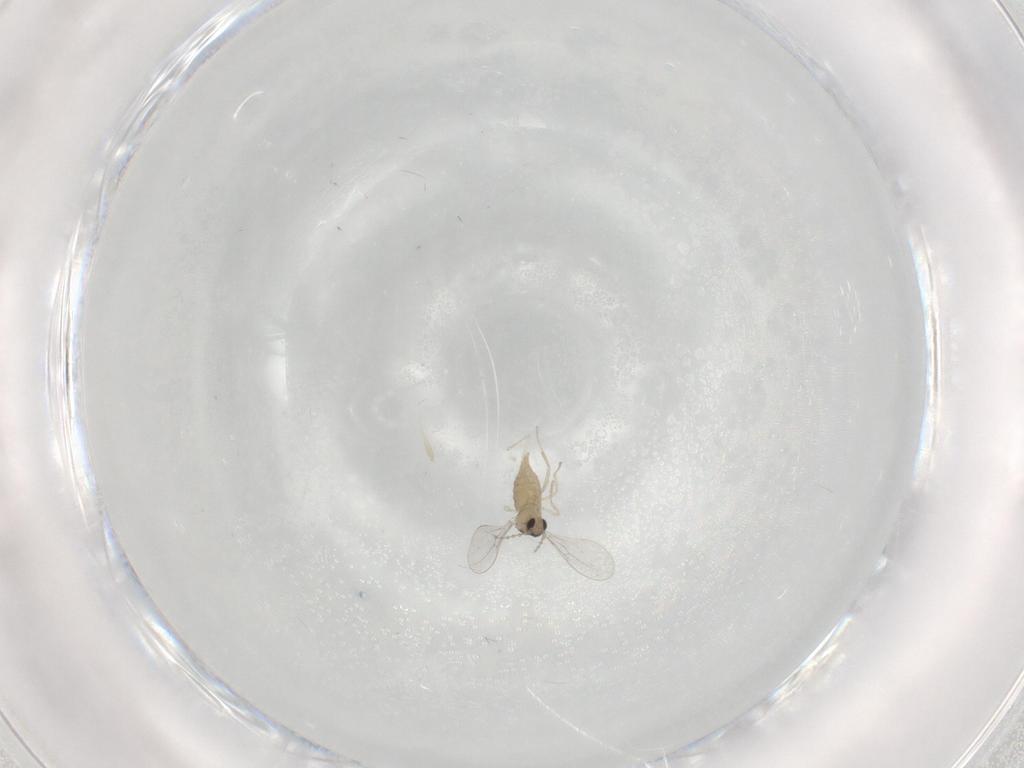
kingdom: Animalia
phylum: Arthropoda
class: Insecta
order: Diptera
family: Cecidomyiidae
